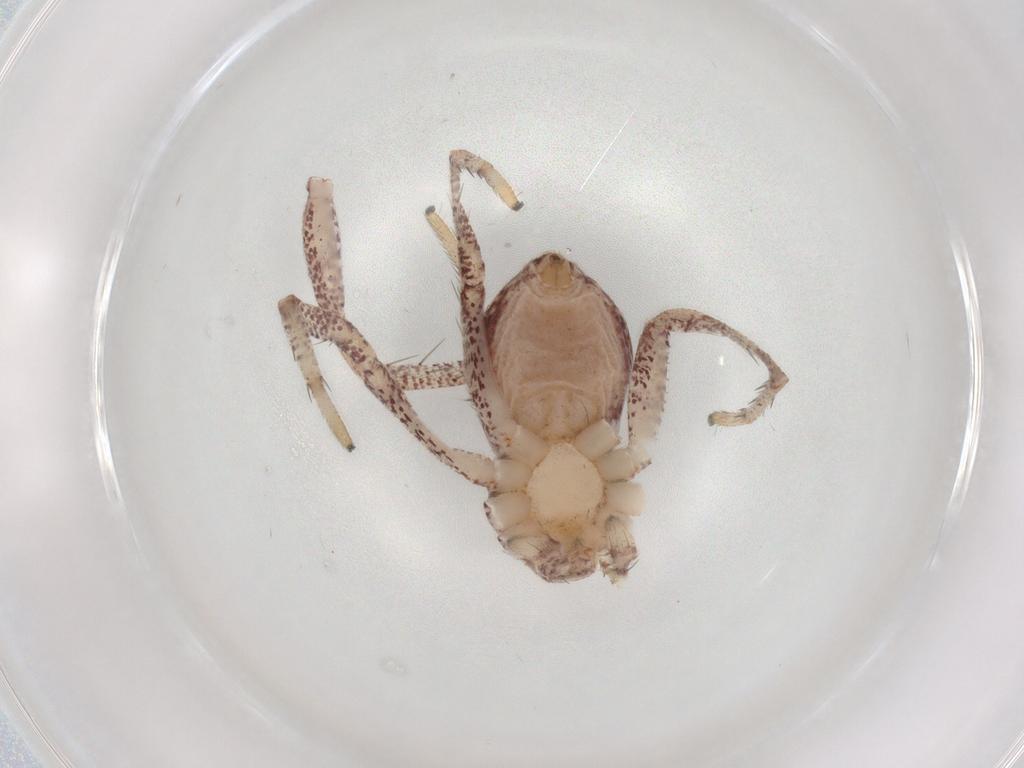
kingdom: Animalia
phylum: Arthropoda
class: Arachnida
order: Araneae
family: Philodromidae
